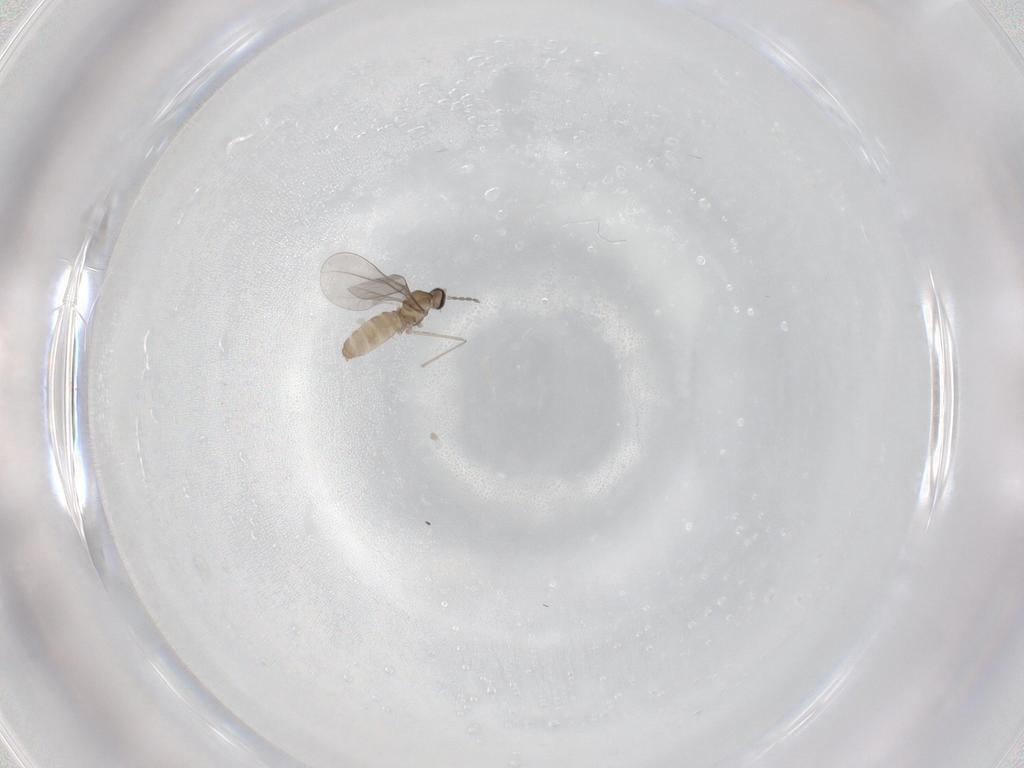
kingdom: Animalia
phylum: Arthropoda
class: Insecta
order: Diptera
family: Cecidomyiidae
